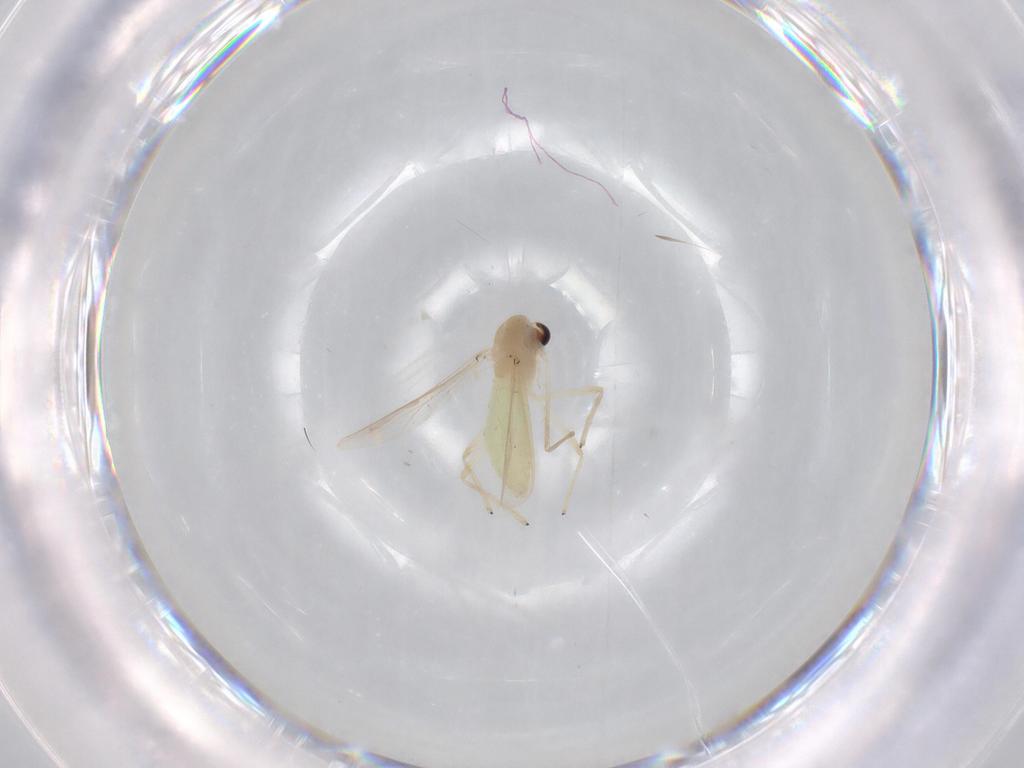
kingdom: Animalia
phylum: Arthropoda
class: Insecta
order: Diptera
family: Chironomidae
